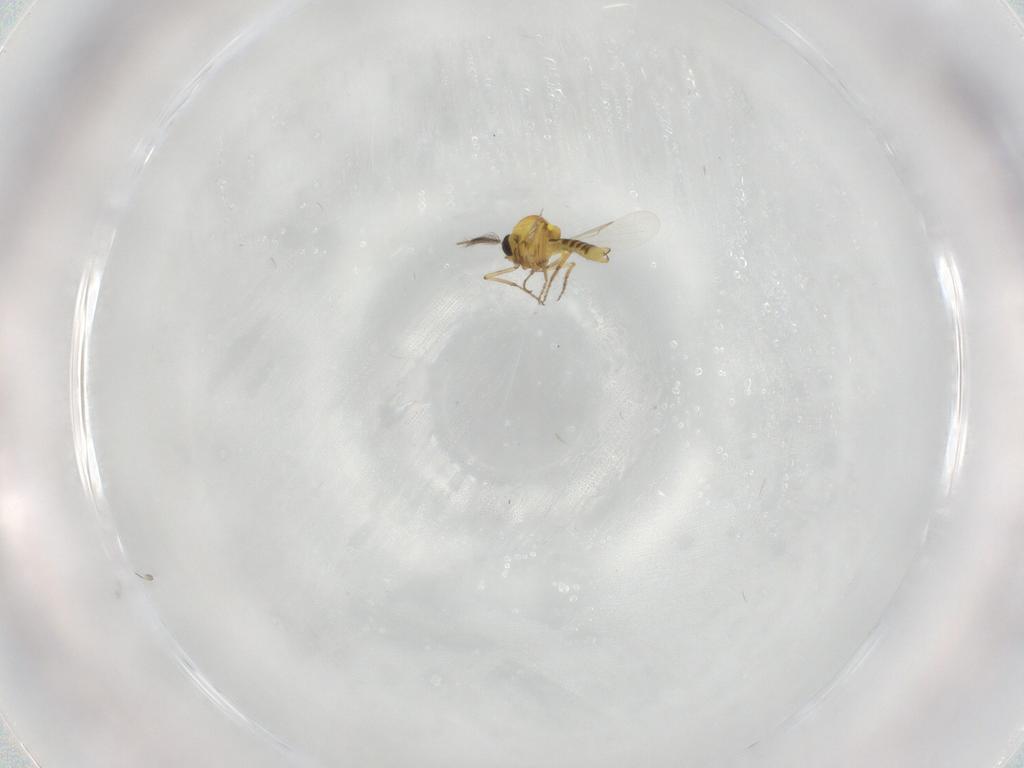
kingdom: Animalia
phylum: Arthropoda
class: Insecta
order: Diptera
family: Ceratopogonidae
